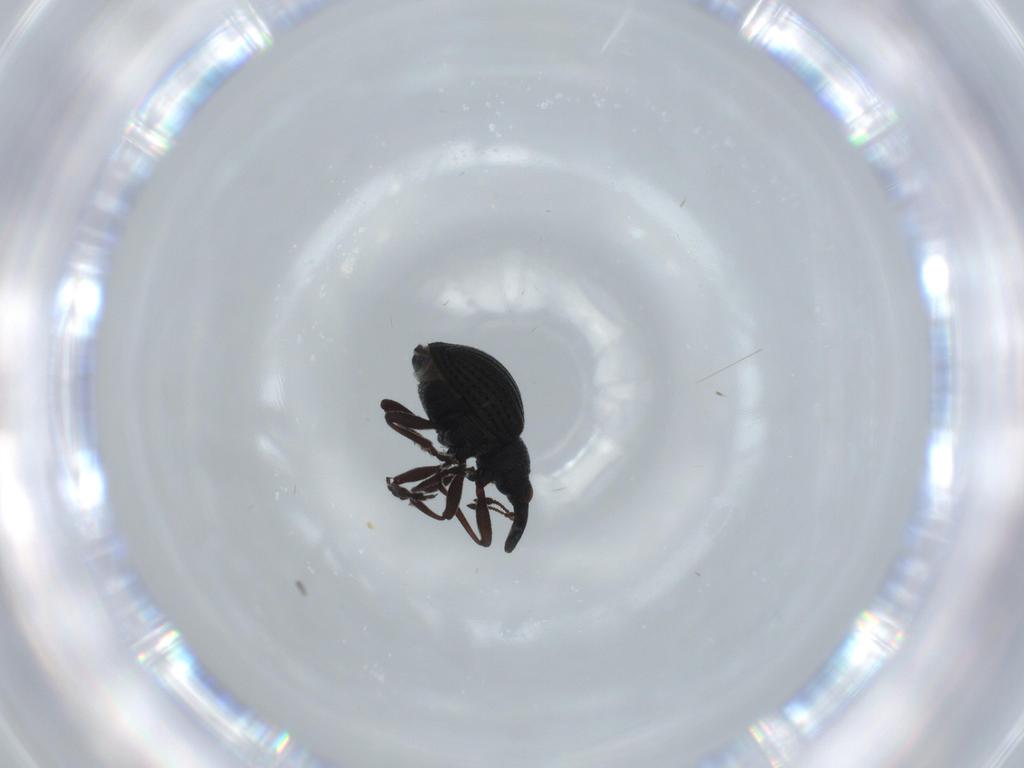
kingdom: Animalia
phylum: Arthropoda
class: Insecta
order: Coleoptera
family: Brentidae
